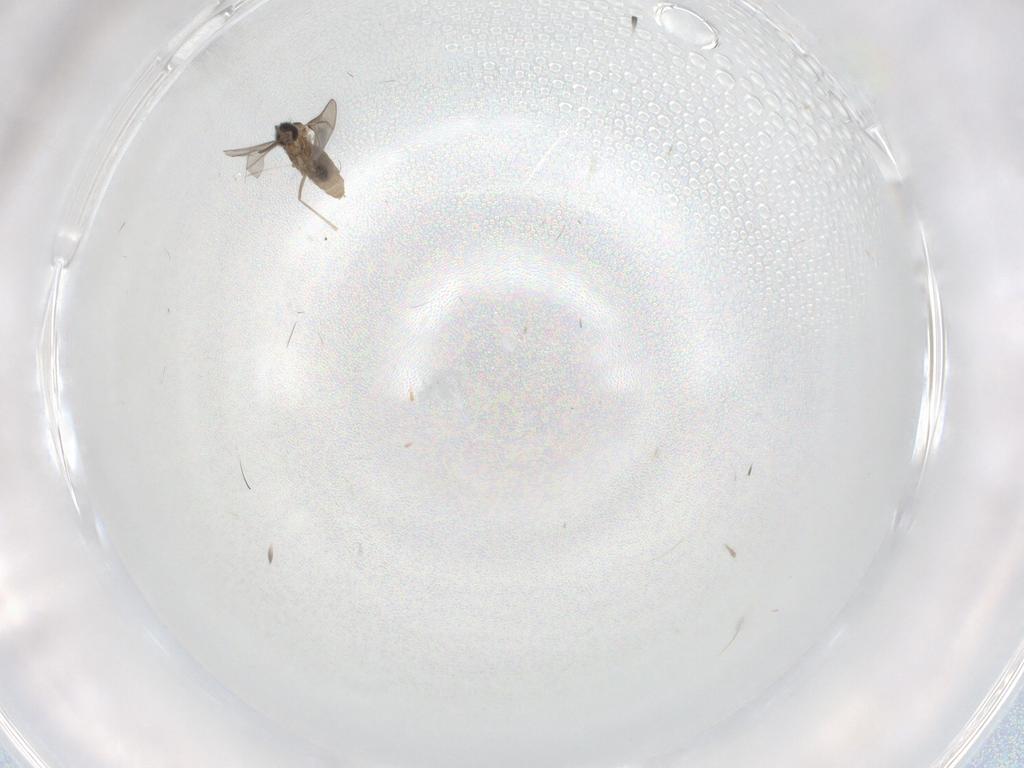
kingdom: Animalia
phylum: Arthropoda
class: Insecta
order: Diptera
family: Cecidomyiidae
